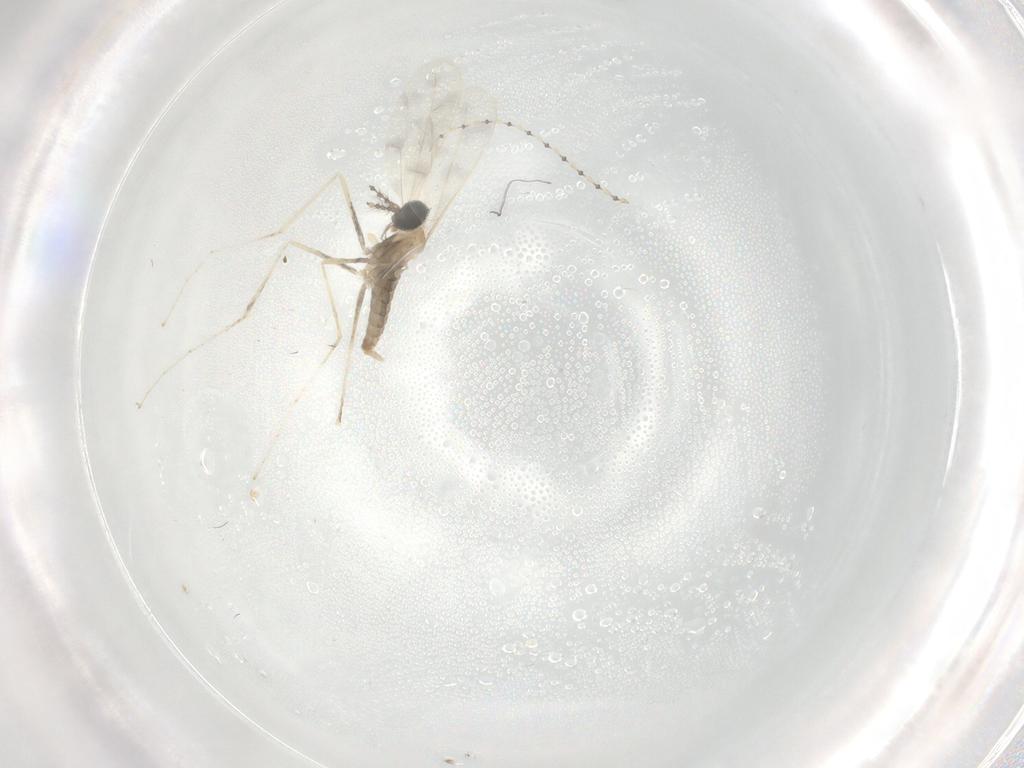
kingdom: Animalia
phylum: Arthropoda
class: Insecta
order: Diptera
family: Cecidomyiidae
